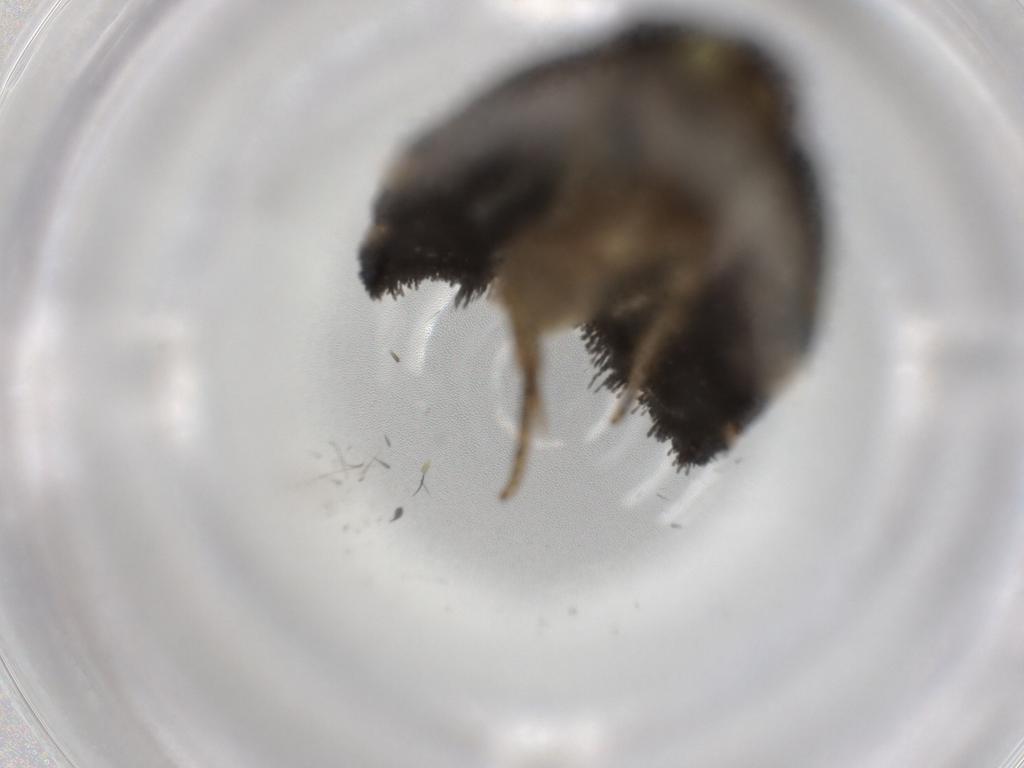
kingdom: Animalia
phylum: Arthropoda
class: Insecta
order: Lepidoptera
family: Tortricidae
